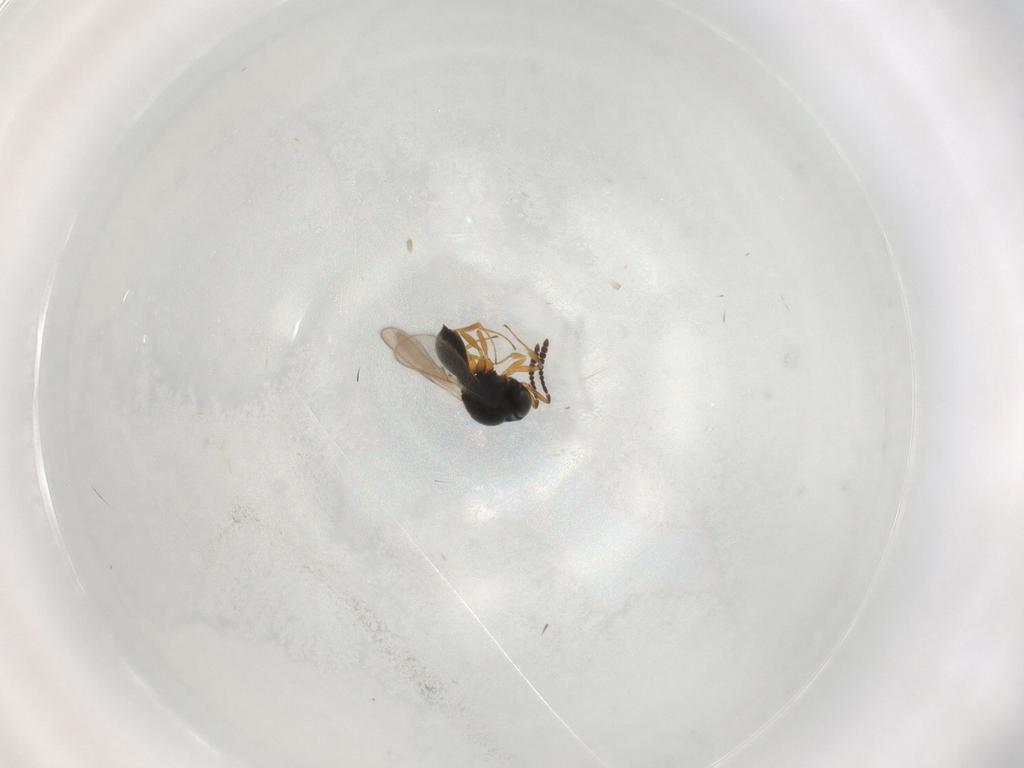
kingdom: Animalia
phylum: Arthropoda
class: Insecta
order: Hymenoptera
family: Scelionidae
